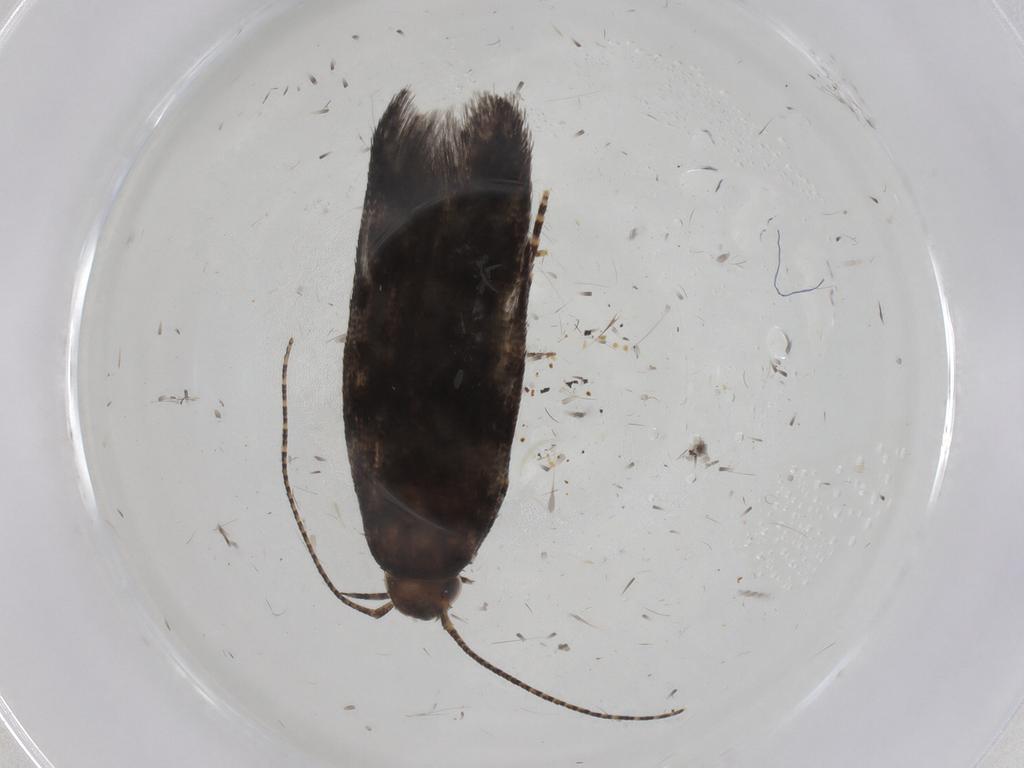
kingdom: Animalia
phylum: Arthropoda
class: Insecta
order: Lepidoptera
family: Gelechiidae
